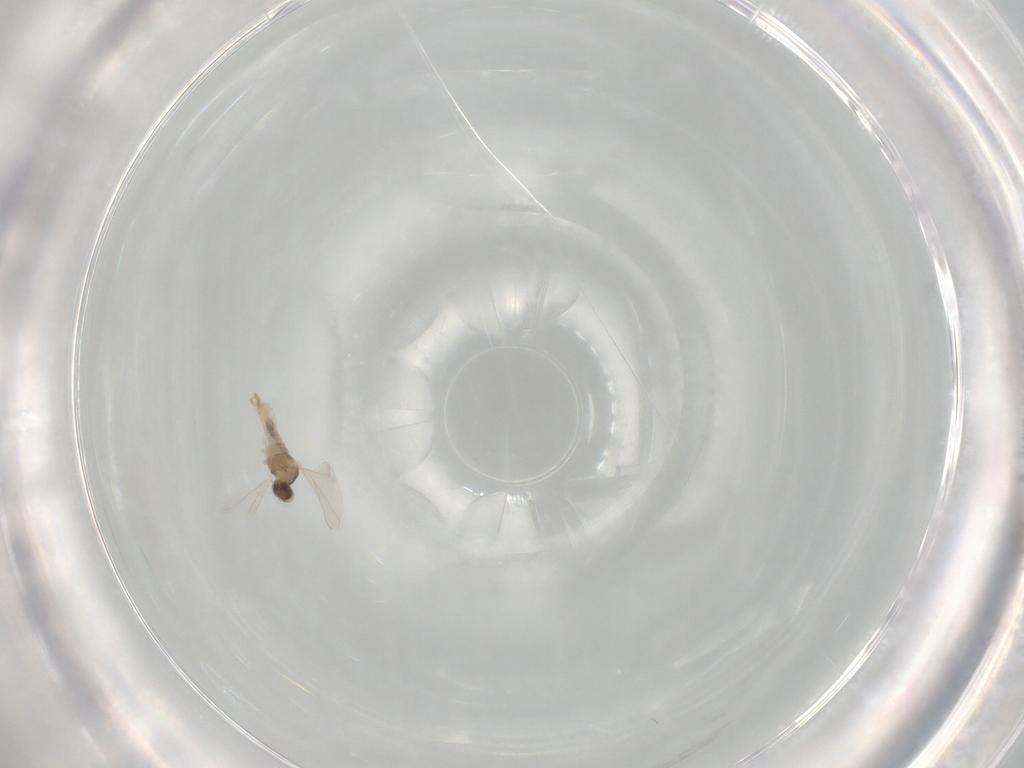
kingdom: Animalia
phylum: Arthropoda
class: Insecta
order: Diptera
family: Cecidomyiidae
